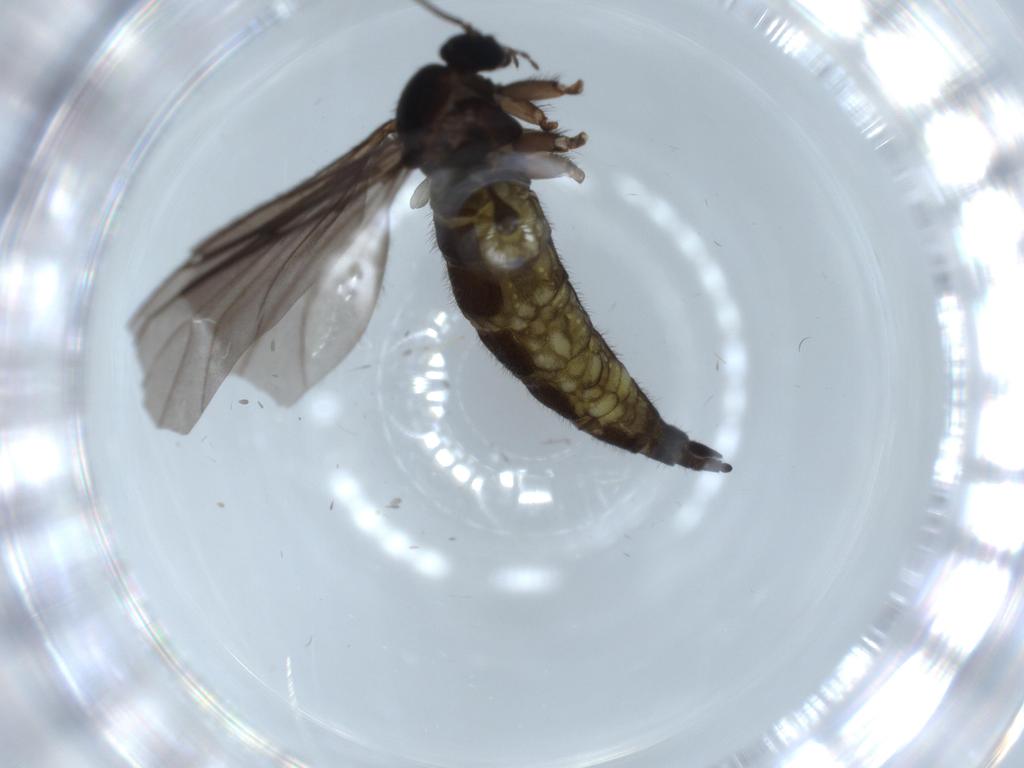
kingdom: Animalia
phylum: Arthropoda
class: Insecta
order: Diptera
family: Sciaridae
